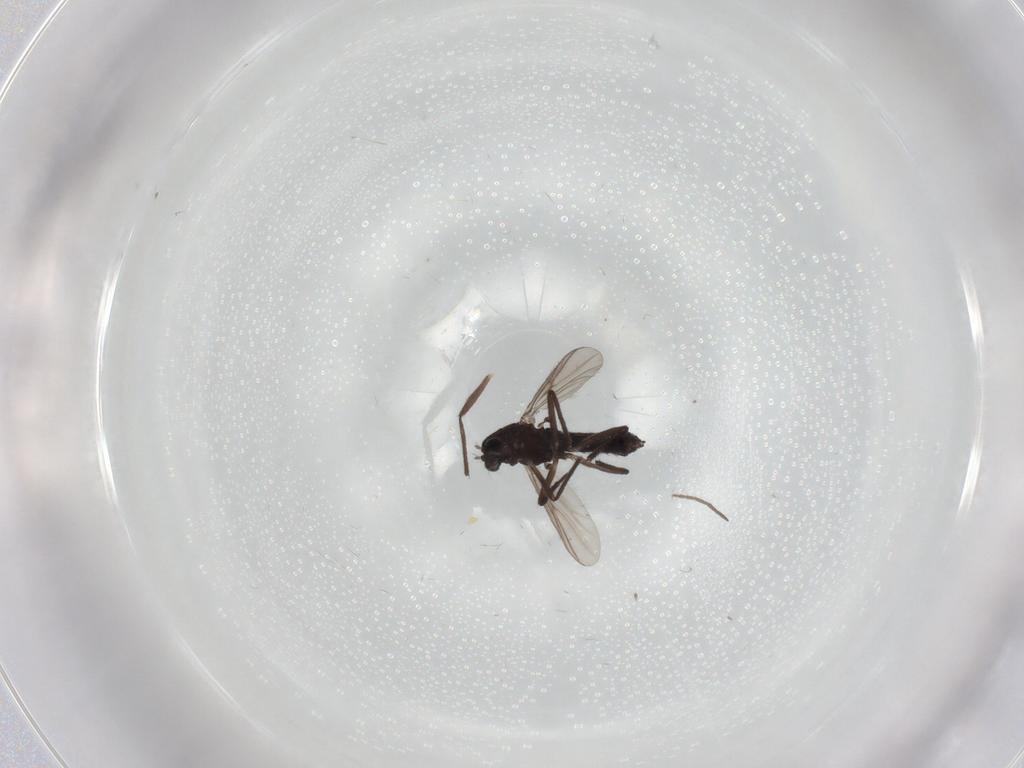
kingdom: Animalia
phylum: Arthropoda
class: Insecta
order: Diptera
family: Chironomidae
